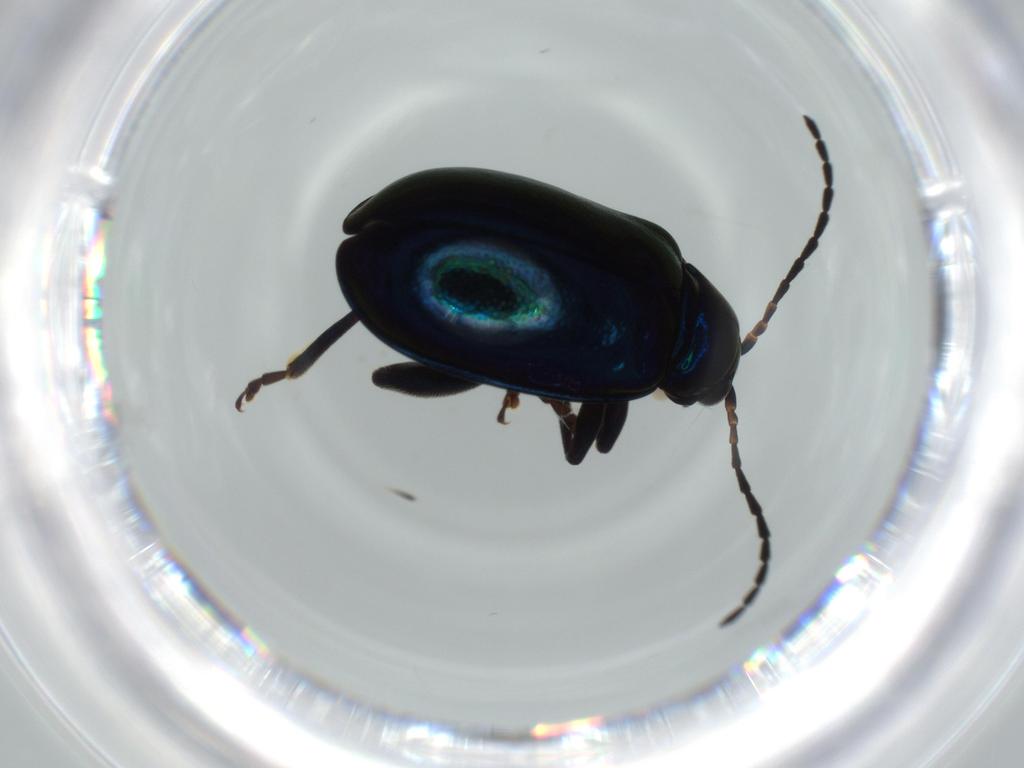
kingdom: Animalia
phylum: Arthropoda
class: Insecta
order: Coleoptera
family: Chrysomelidae
